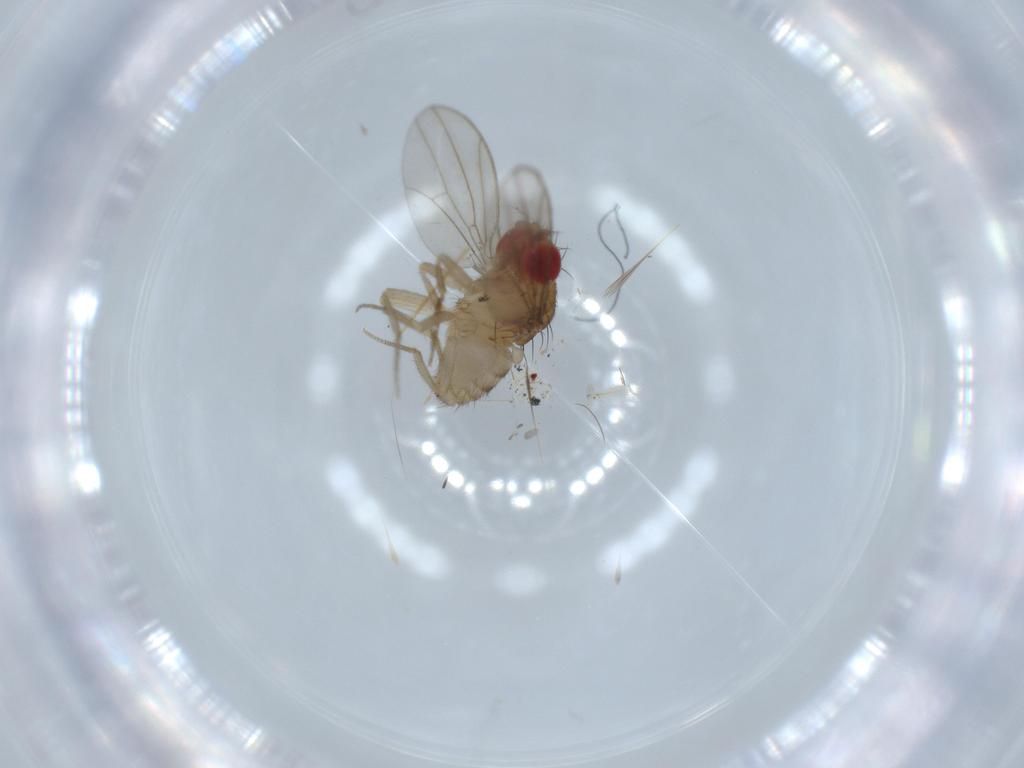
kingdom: Animalia
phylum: Arthropoda
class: Insecta
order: Diptera
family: Drosophilidae
